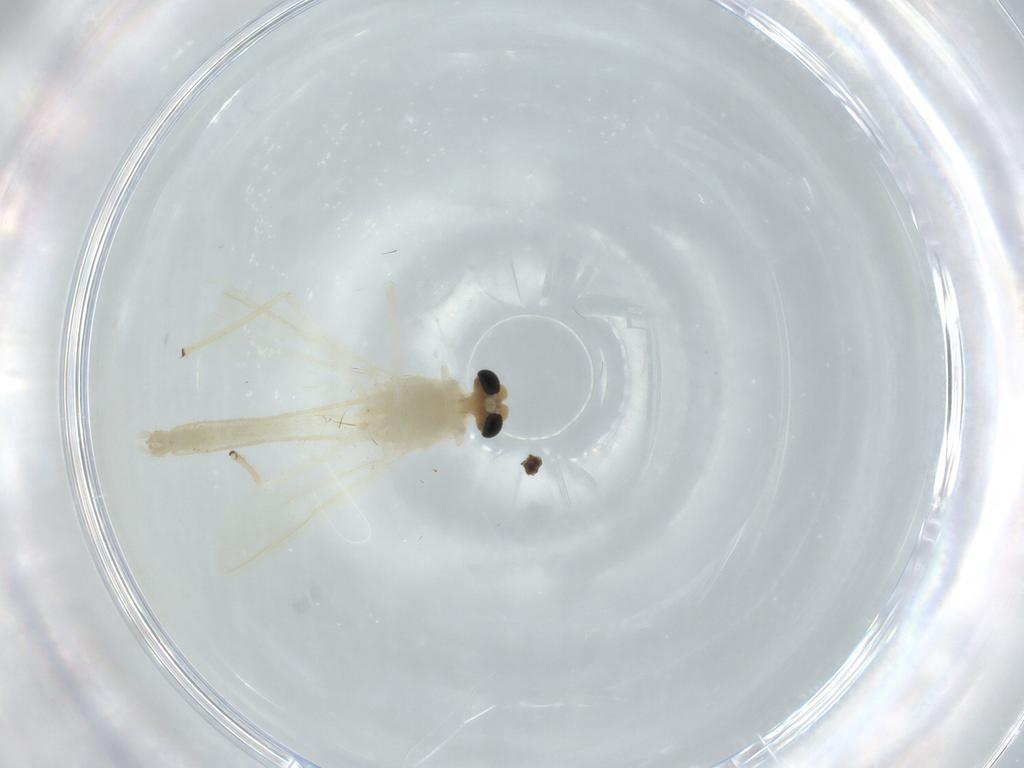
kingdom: Animalia
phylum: Arthropoda
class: Insecta
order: Diptera
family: Chironomidae
